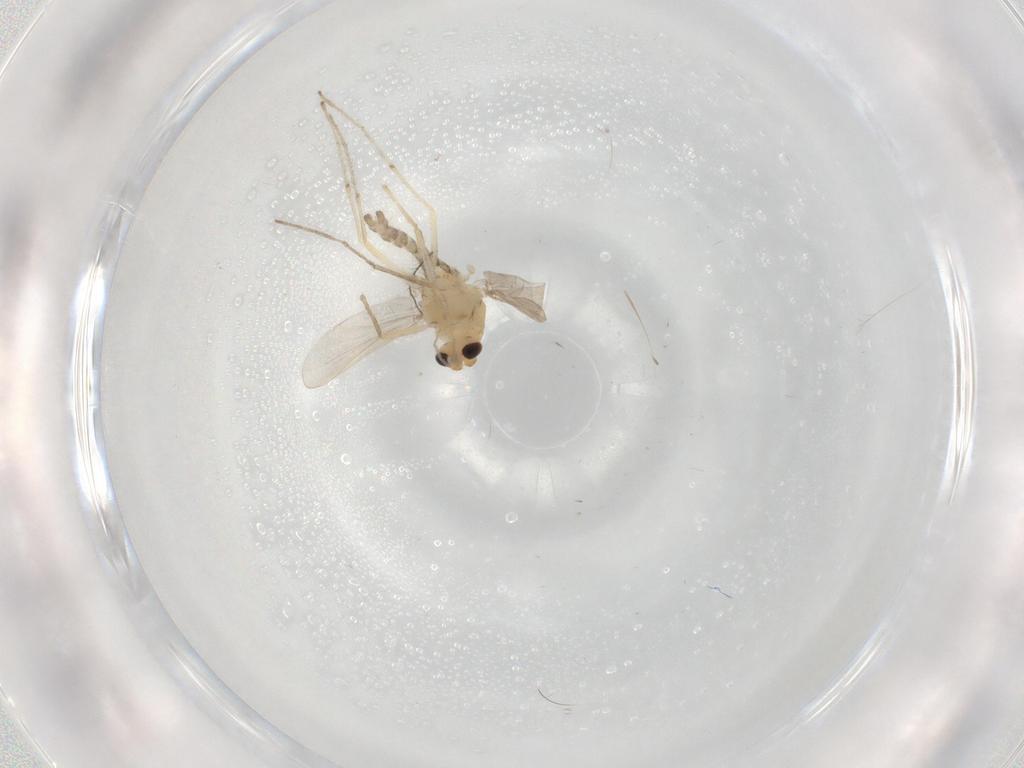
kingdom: Animalia
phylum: Arthropoda
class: Insecta
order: Diptera
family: Chironomidae
